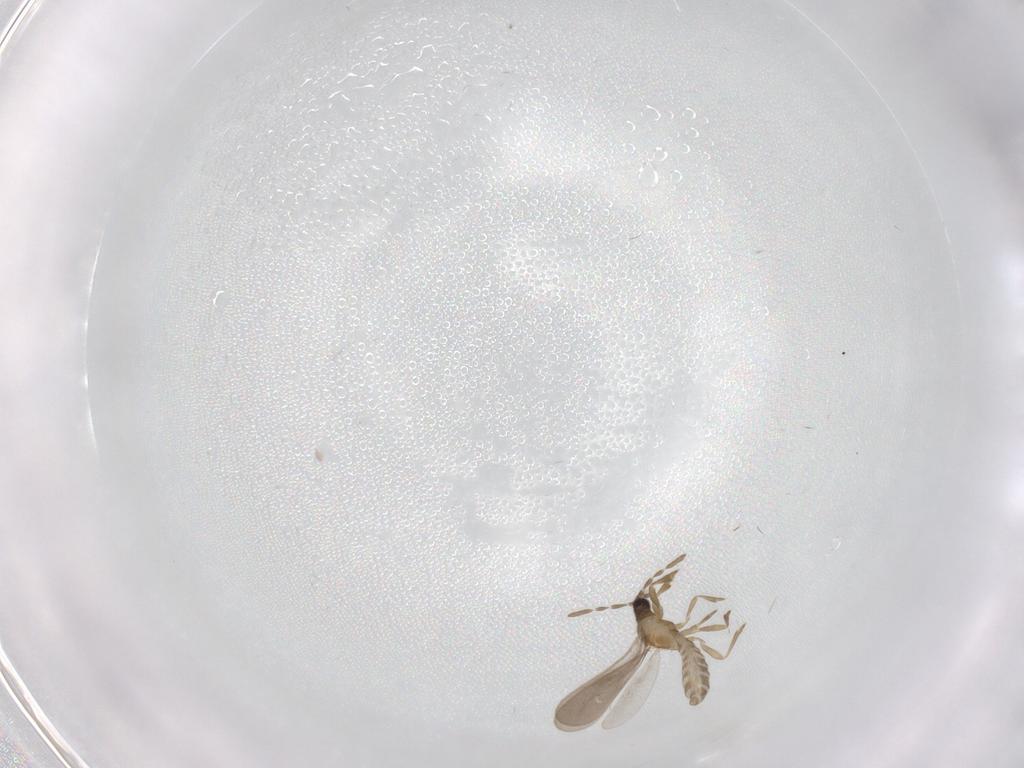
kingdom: Animalia
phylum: Arthropoda
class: Insecta
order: Hemiptera
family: Enicocephalidae
